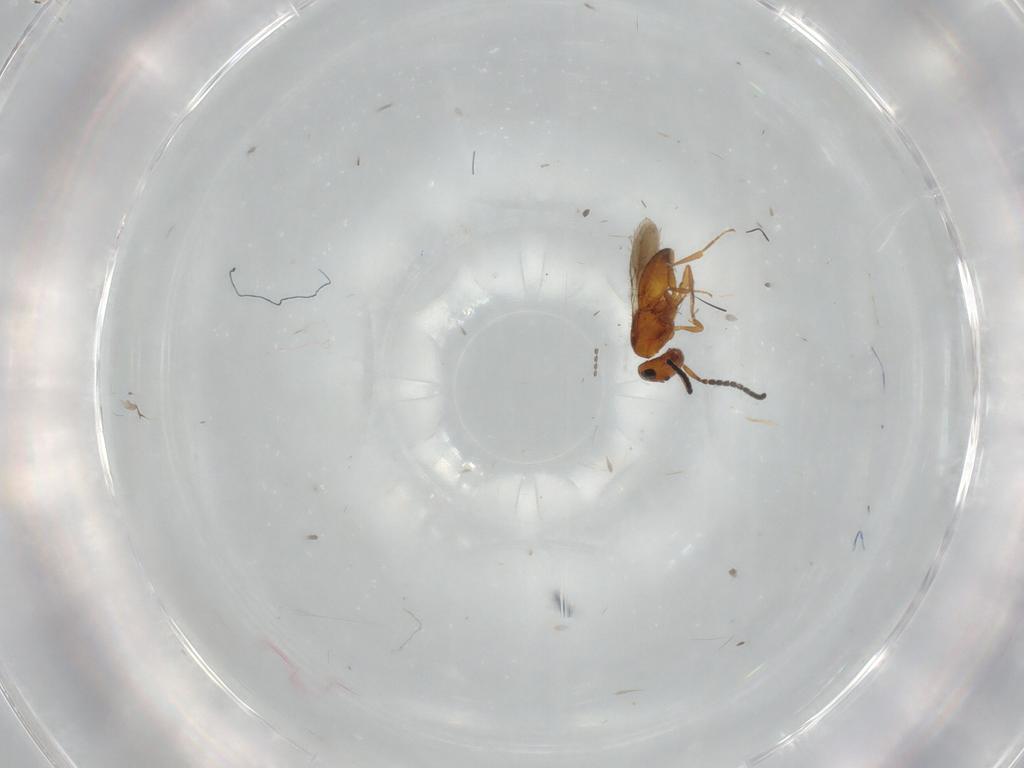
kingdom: Animalia
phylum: Arthropoda
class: Insecta
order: Hymenoptera
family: Scelionidae
